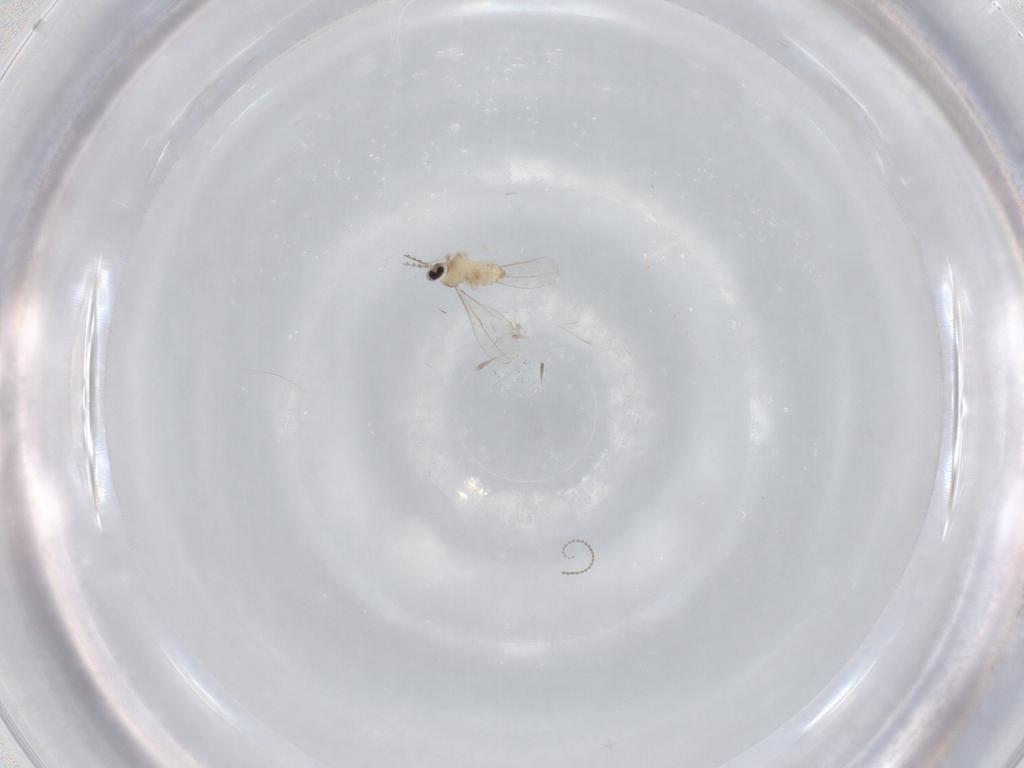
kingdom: Animalia
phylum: Arthropoda
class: Insecta
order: Diptera
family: Cecidomyiidae
